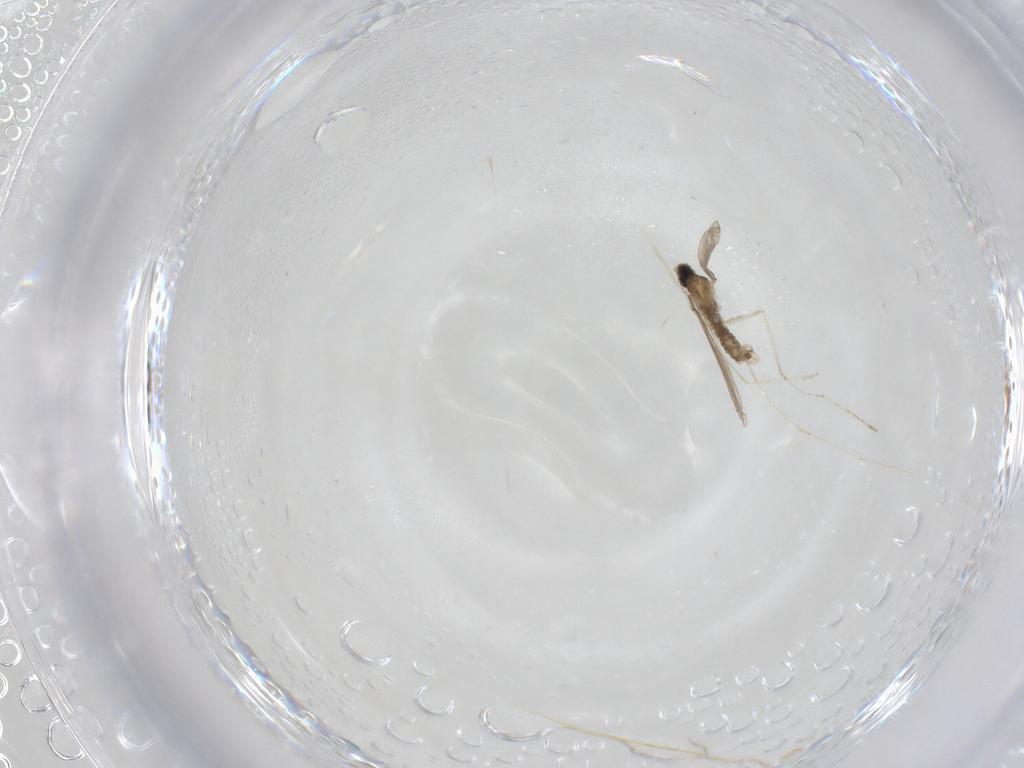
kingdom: Animalia
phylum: Arthropoda
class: Insecta
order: Diptera
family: Cecidomyiidae
